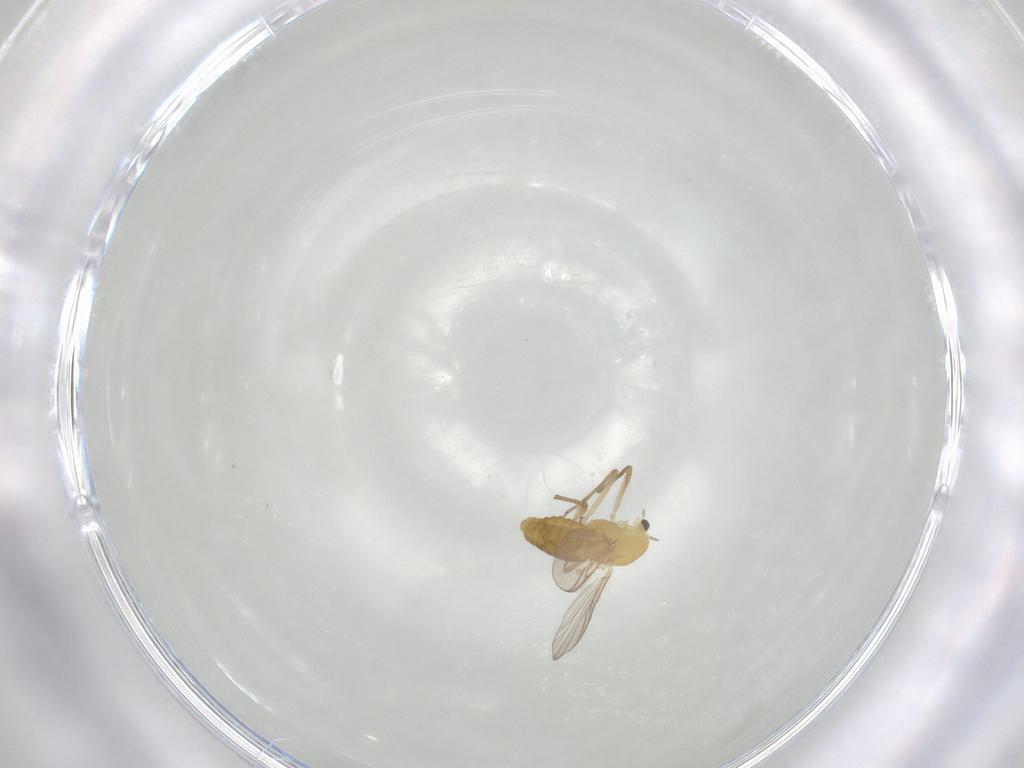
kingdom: Animalia
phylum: Arthropoda
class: Insecta
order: Diptera
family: Chironomidae
